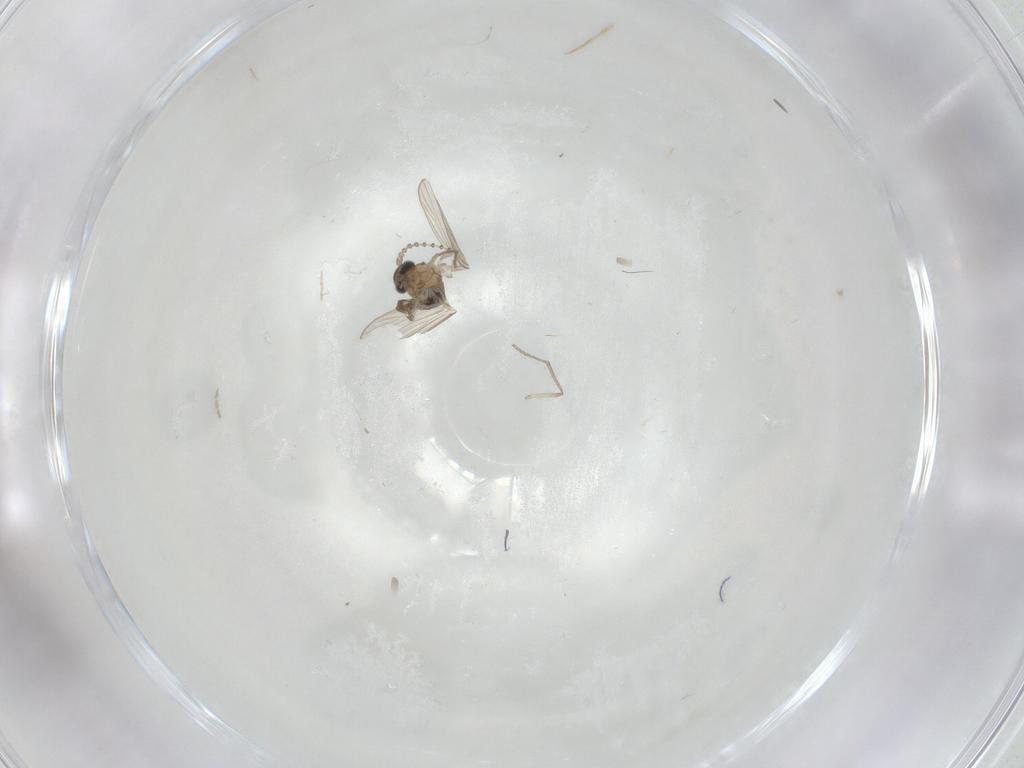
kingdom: Animalia
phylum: Arthropoda
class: Insecta
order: Diptera
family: Psychodidae
